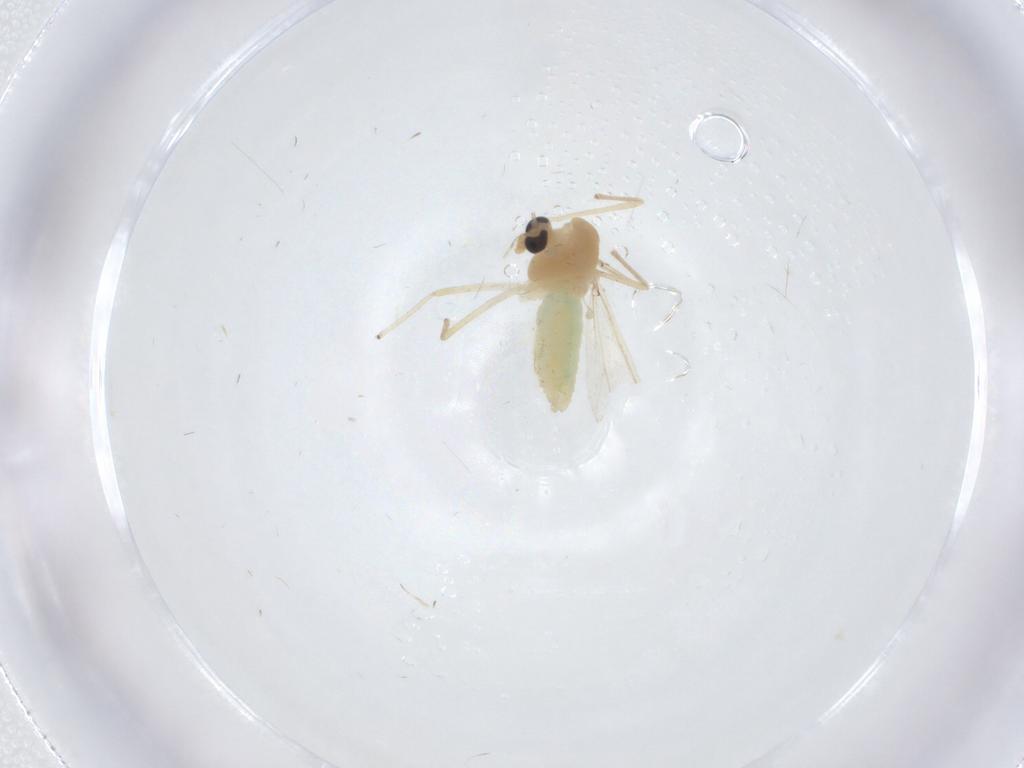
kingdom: Animalia
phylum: Arthropoda
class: Insecta
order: Diptera
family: Chironomidae
